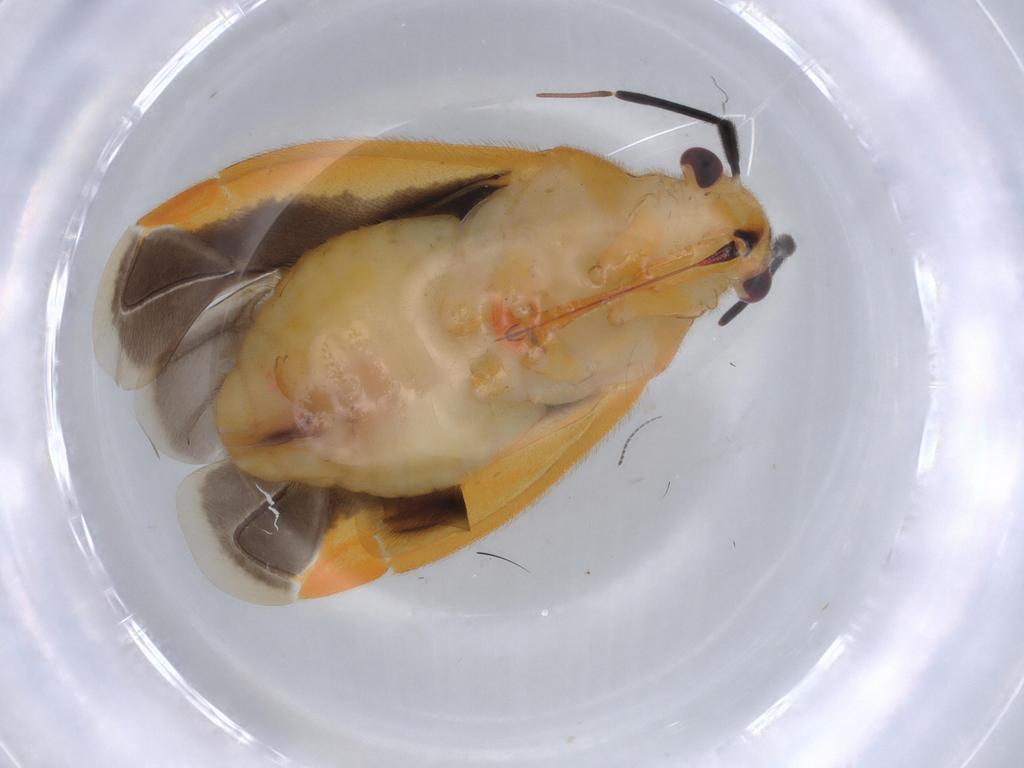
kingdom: Animalia
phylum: Arthropoda
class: Insecta
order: Hemiptera
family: Miridae
